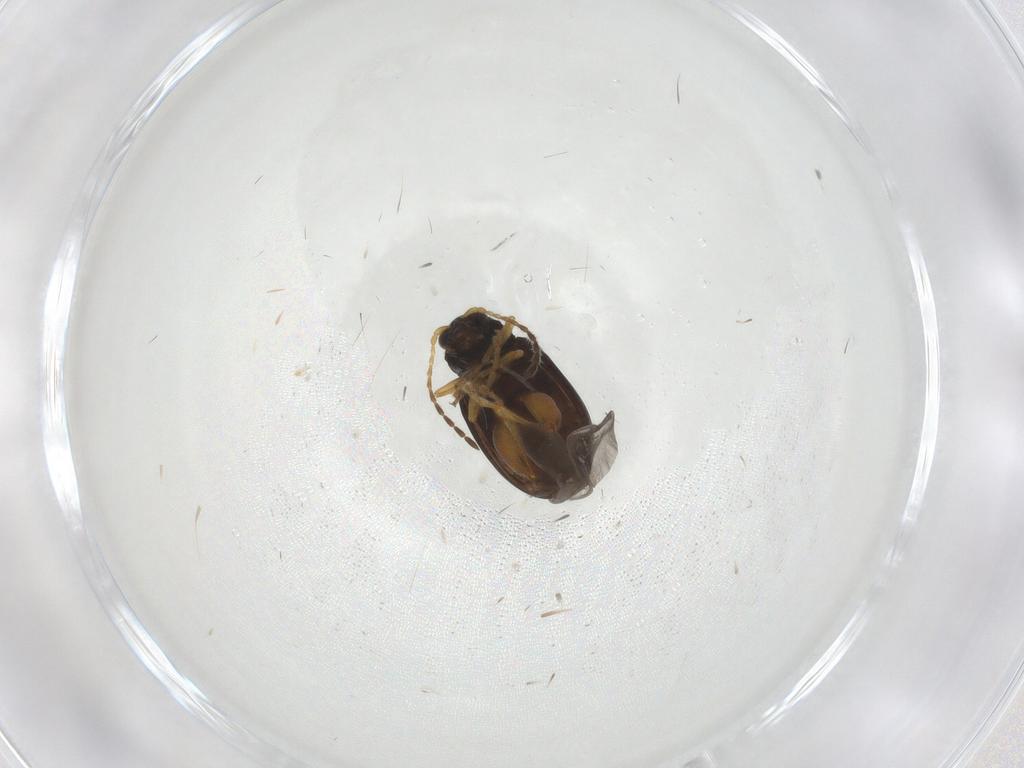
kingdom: Animalia
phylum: Arthropoda
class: Insecta
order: Coleoptera
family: Chrysomelidae
